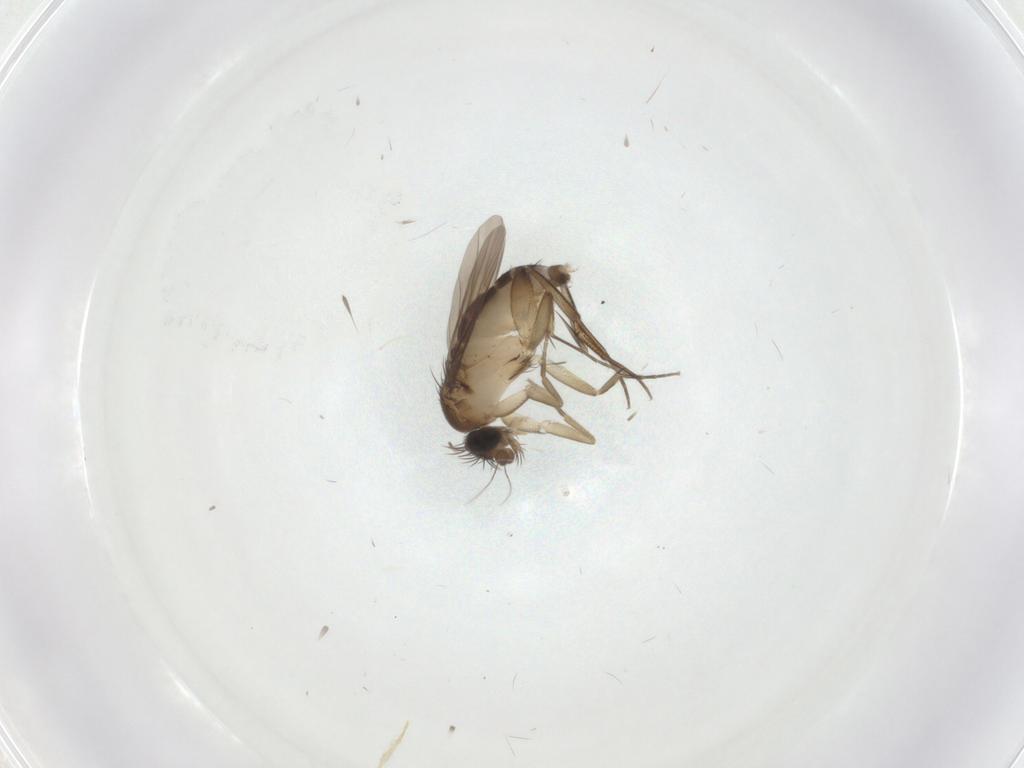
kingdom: Animalia
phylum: Arthropoda
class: Insecta
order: Diptera
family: Phoridae
